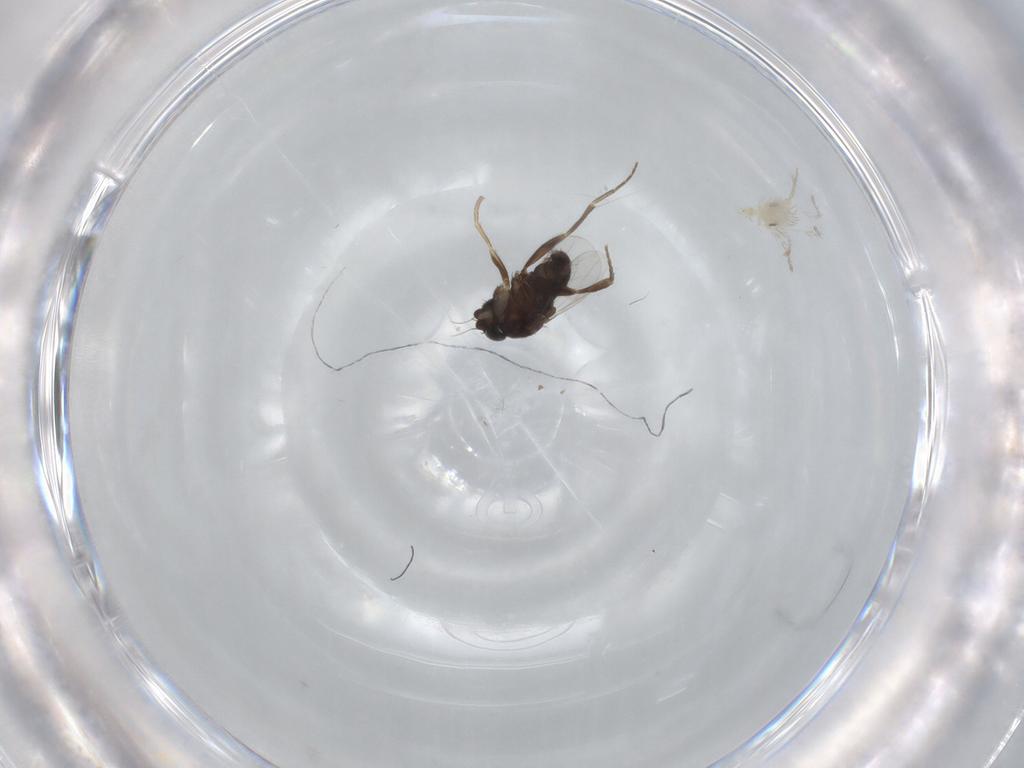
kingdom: Animalia
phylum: Arthropoda
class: Insecta
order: Diptera
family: Phoridae
